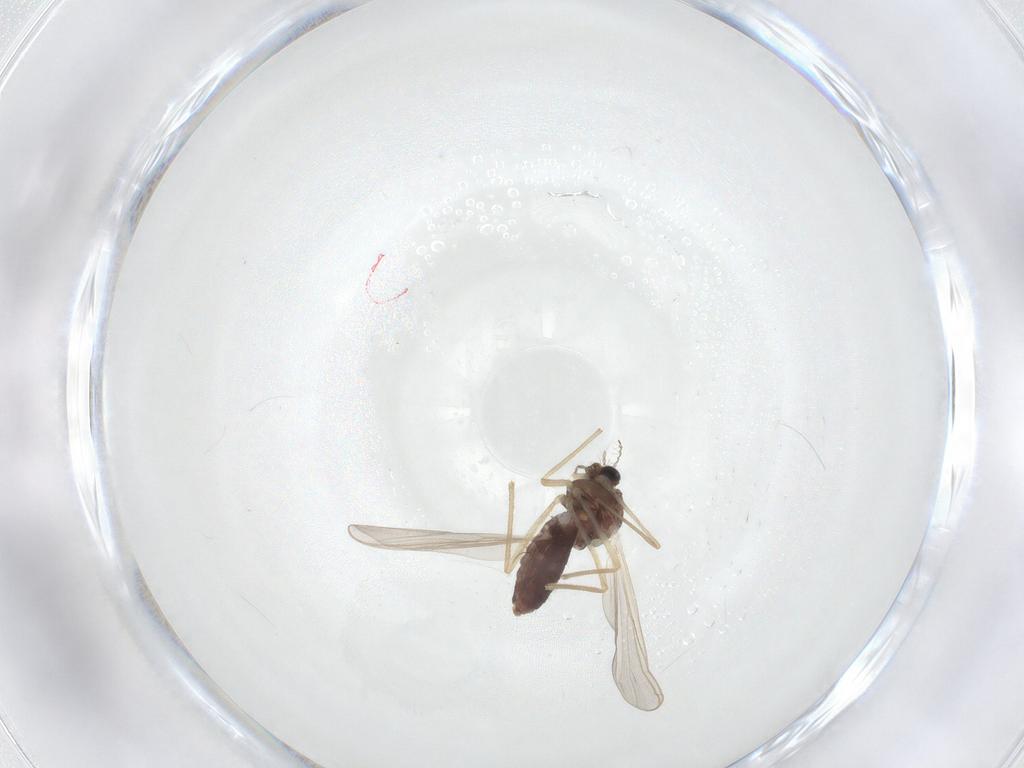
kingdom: Animalia
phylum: Arthropoda
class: Insecta
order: Diptera
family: Chironomidae
